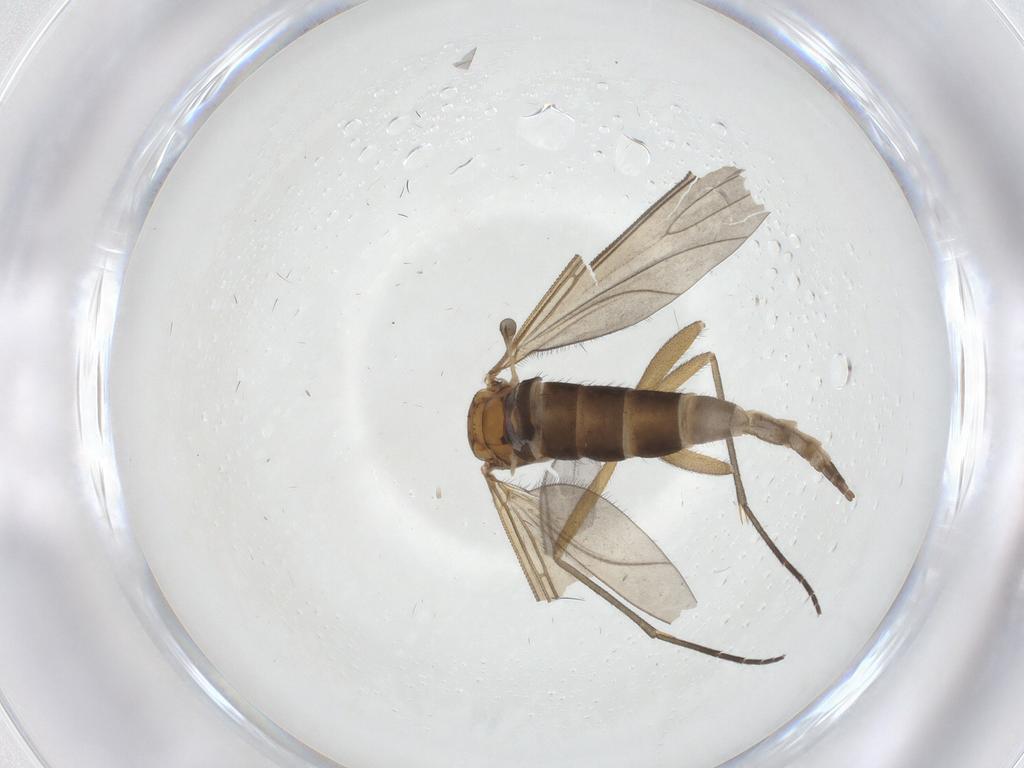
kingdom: Animalia
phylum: Arthropoda
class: Insecta
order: Diptera
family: Sciaridae
